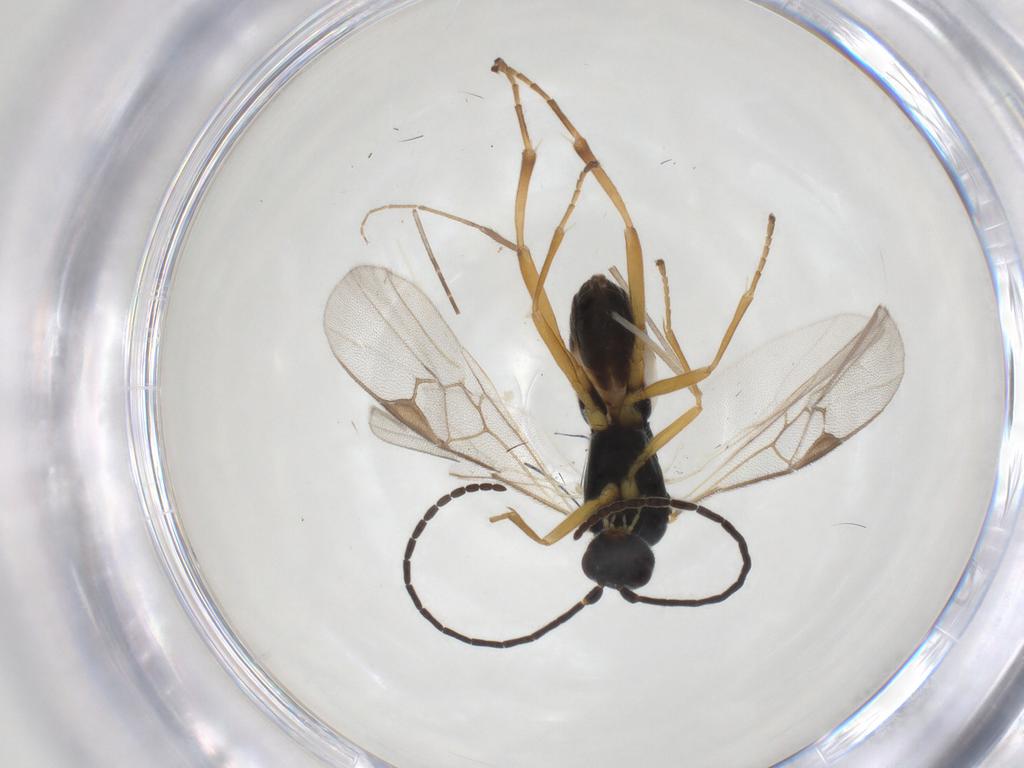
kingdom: Animalia
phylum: Arthropoda
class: Insecta
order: Hymenoptera
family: Braconidae
